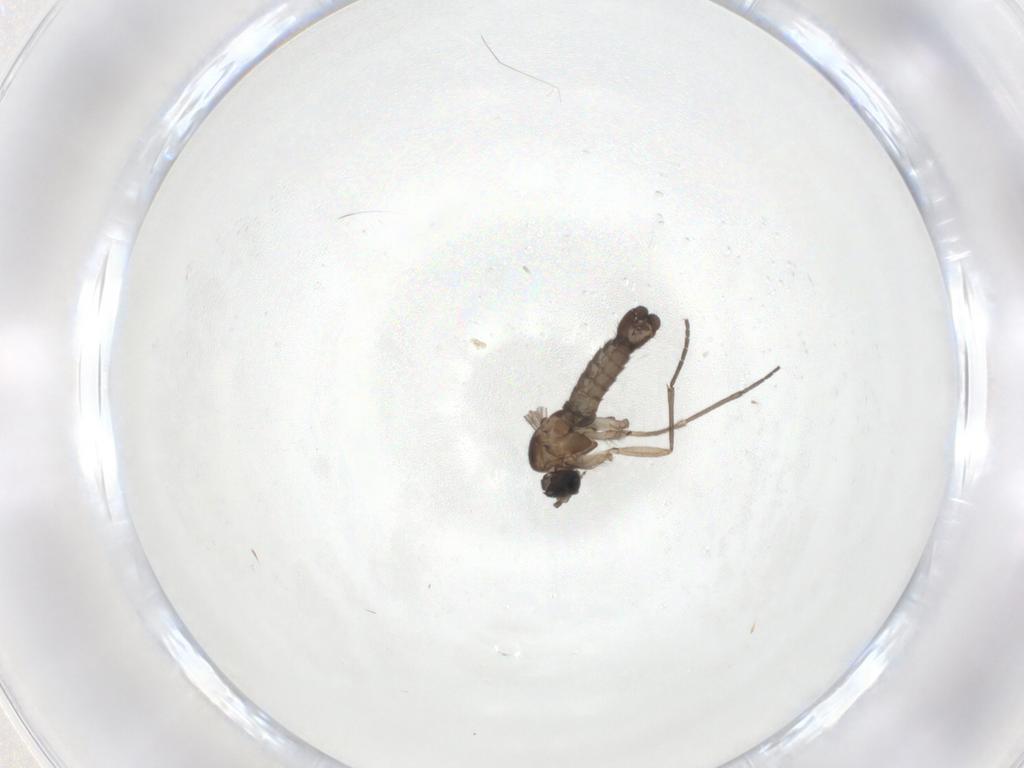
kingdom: Animalia
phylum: Arthropoda
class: Insecta
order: Diptera
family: Sciaridae
